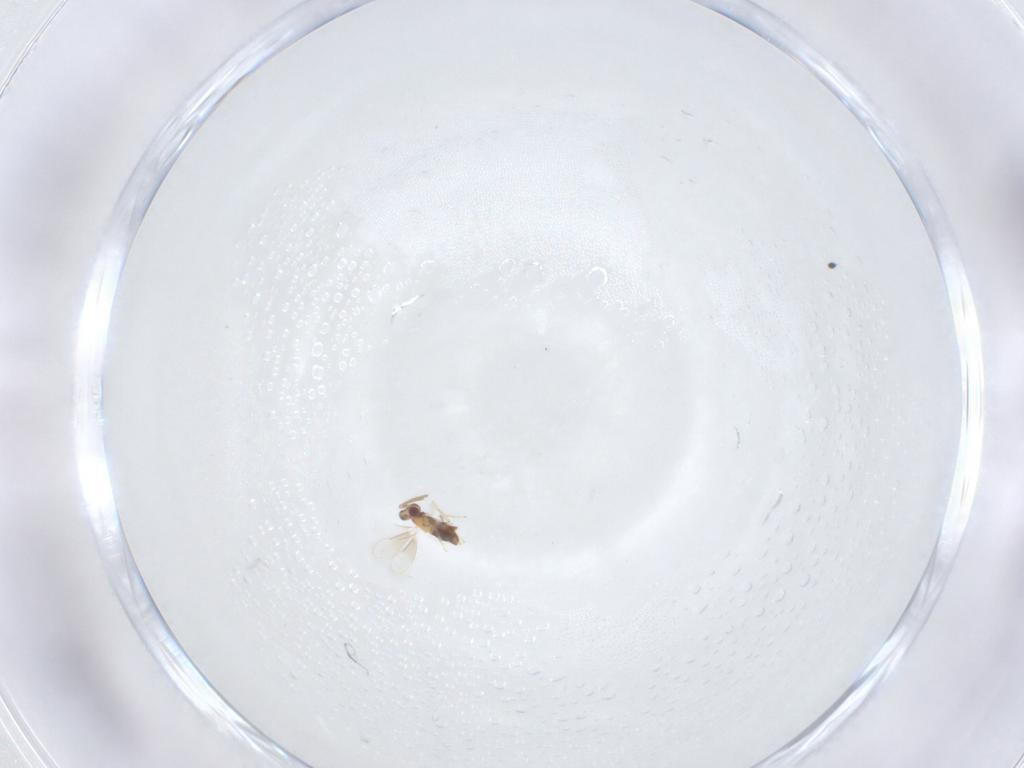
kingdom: Animalia
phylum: Arthropoda
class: Insecta
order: Hymenoptera
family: Aphelinidae
